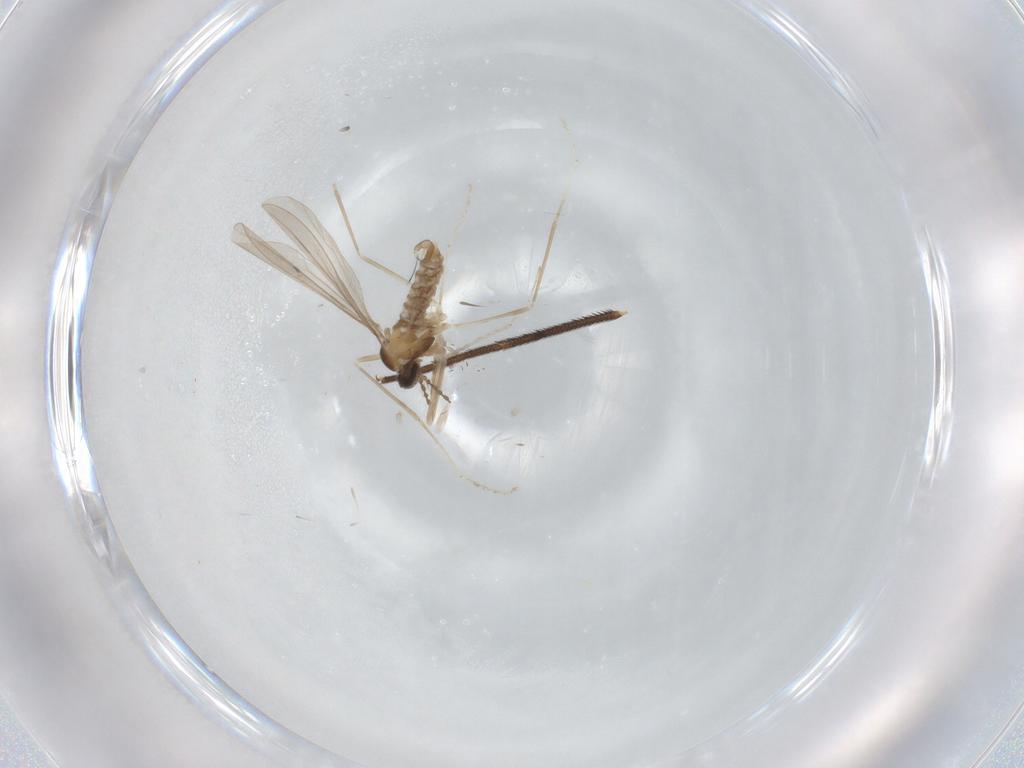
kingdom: Animalia
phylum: Arthropoda
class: Insecta
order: Diptera
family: Sciaridae
